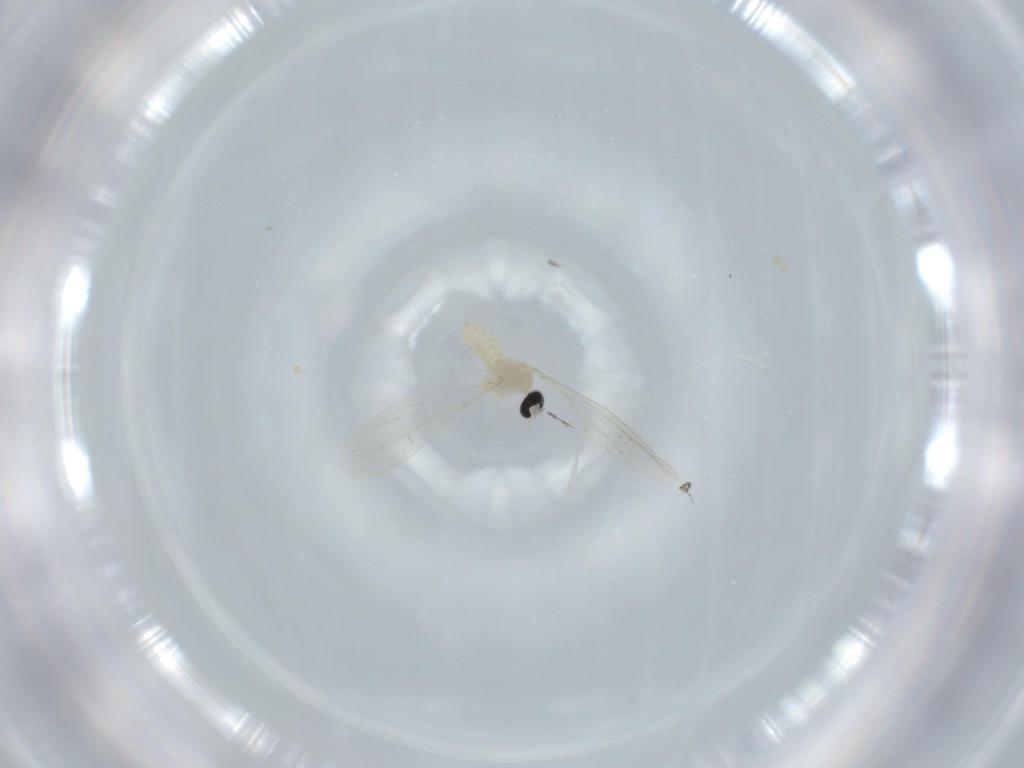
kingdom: Animalia
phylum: Arthropoda
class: Insecta
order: Diptera
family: Cecidomyiidae
